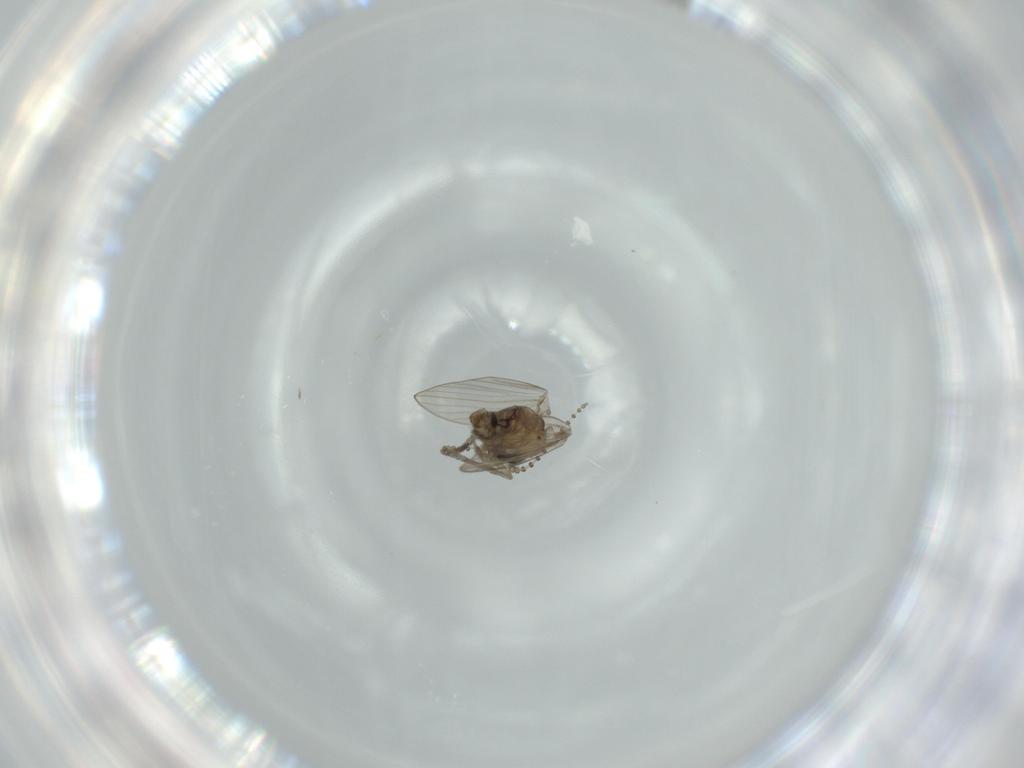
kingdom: Animalia
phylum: Arthropoda
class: Insecta
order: Diptera
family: Psychodidae
